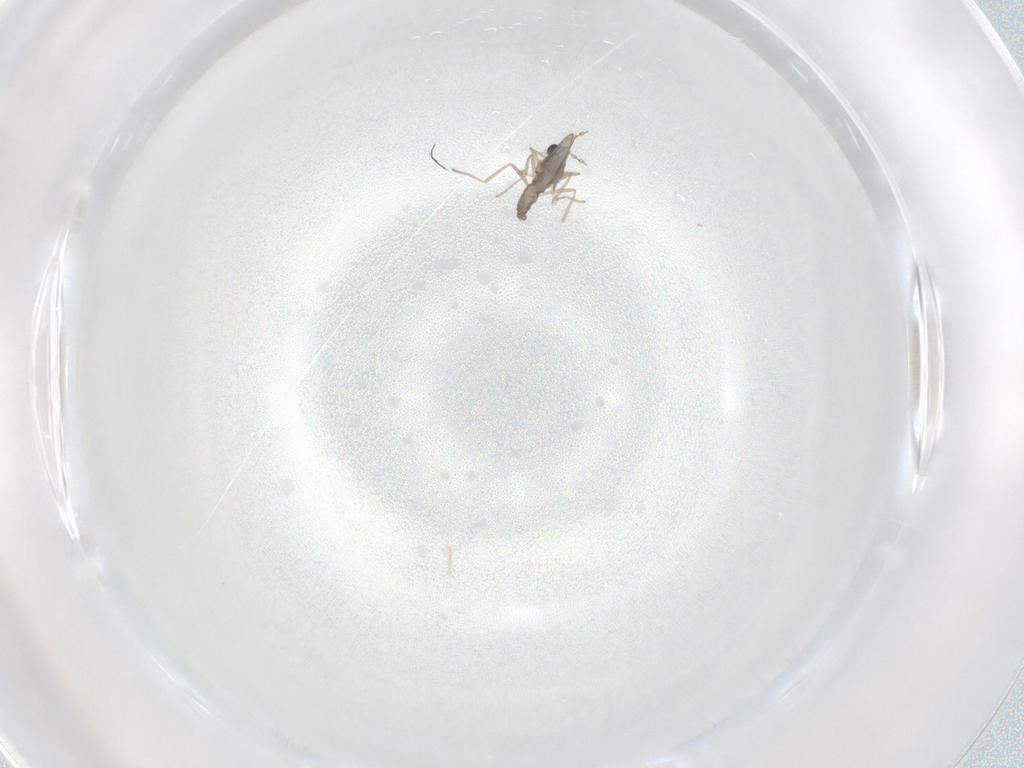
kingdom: Animalia
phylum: Arthropoda
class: Insecta
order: Diptera
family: Cecidomyiidae
